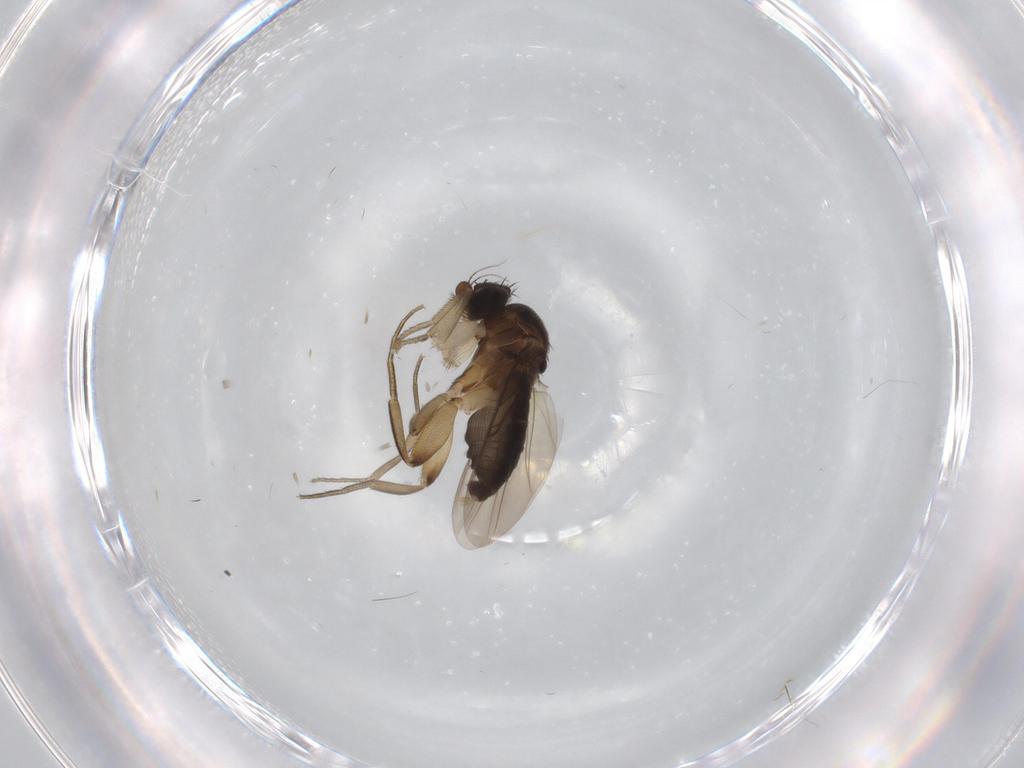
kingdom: Animalia
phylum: Arthropoda
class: Insecta
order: Diptera
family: Phoridae
